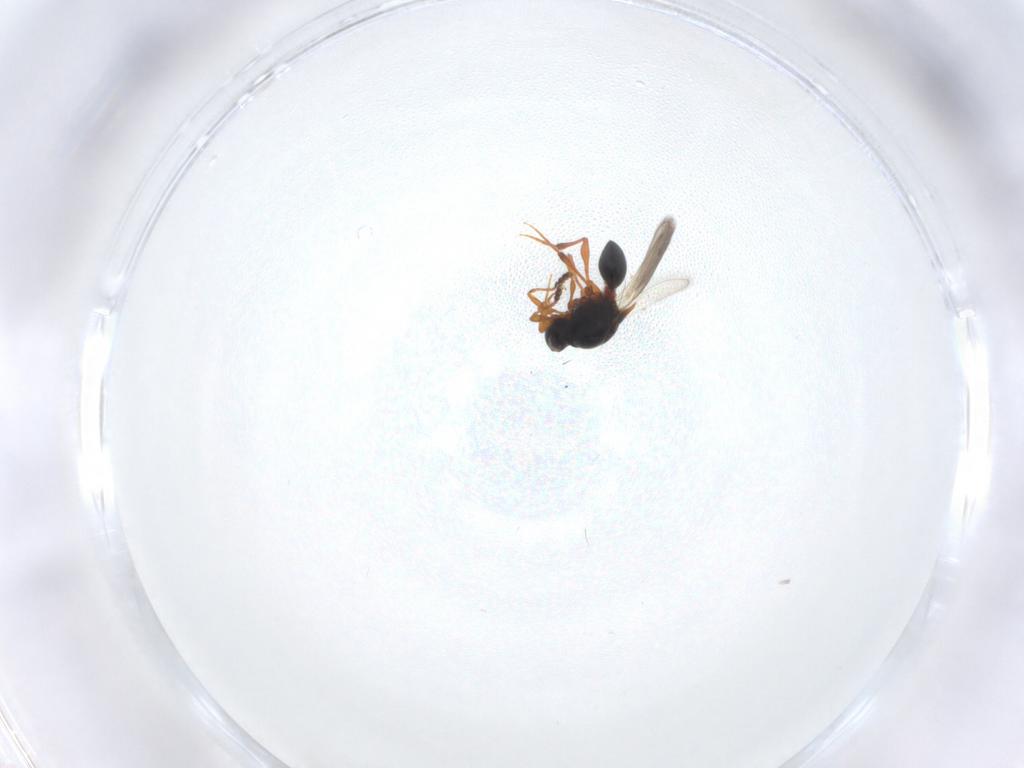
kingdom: Animalia
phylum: Arthropoda
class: Insecta
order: Hymenoptera
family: Platygastridae
